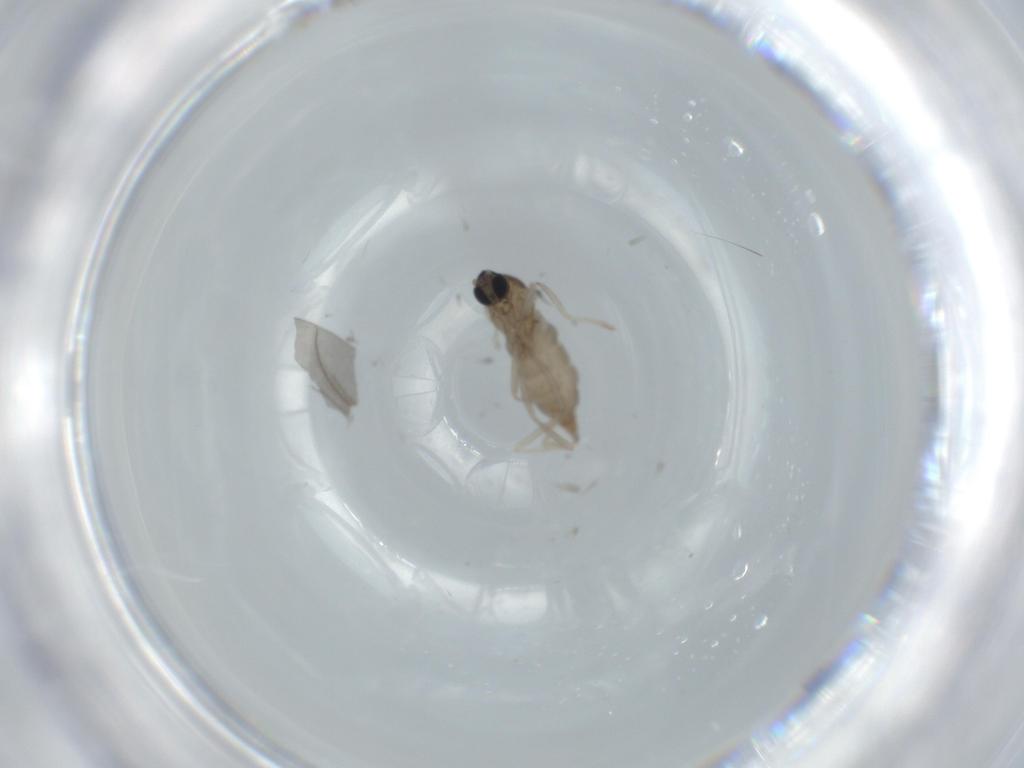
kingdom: Animalia
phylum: Arthropoda
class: Insecta
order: Diptera
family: Cecidomyiidae
